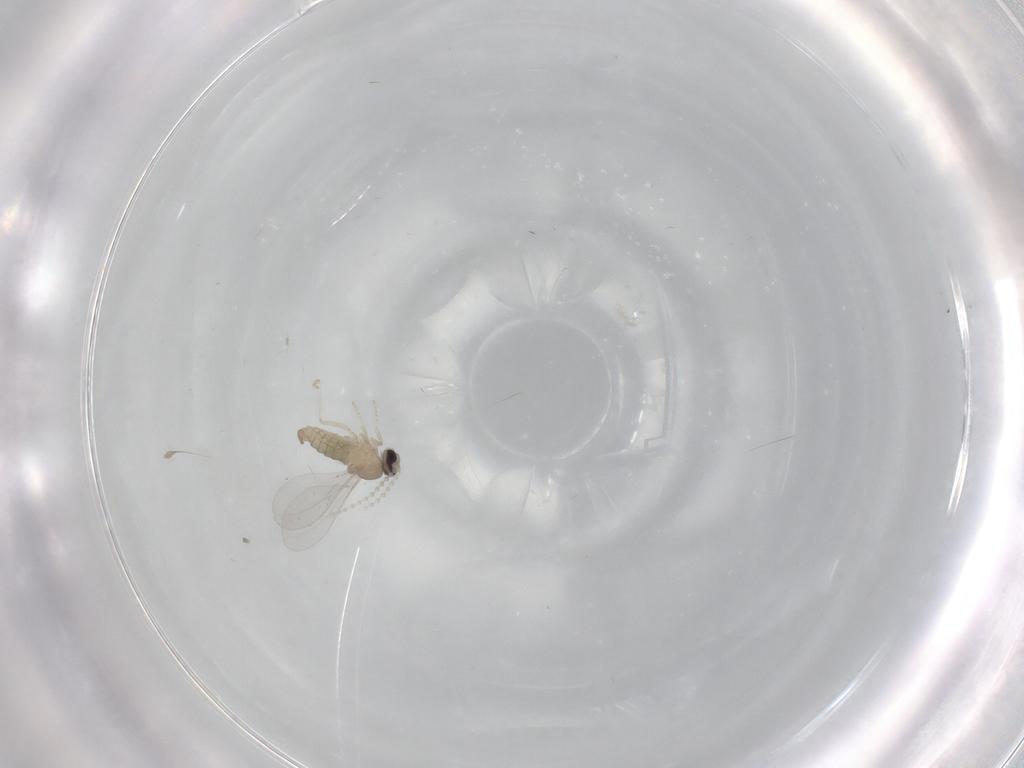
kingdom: Animalia
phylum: Arthropoda
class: Insecta
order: Diptera
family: Cecidomyiidae
